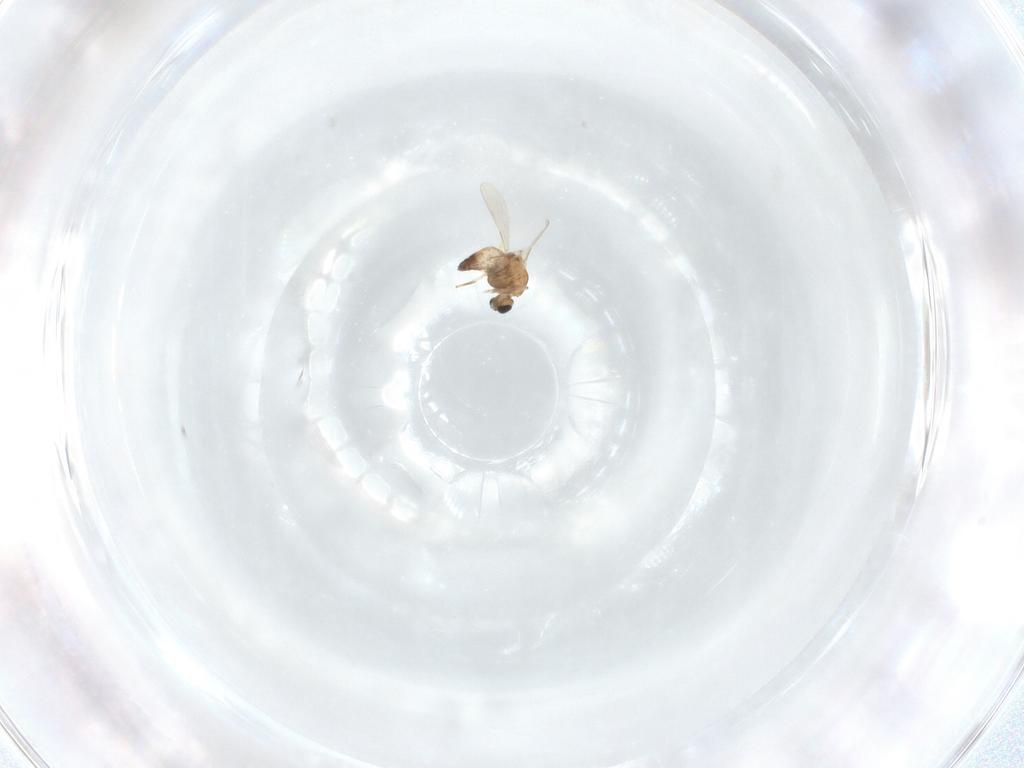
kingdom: Animalia
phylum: Arthropoda
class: Insecta
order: Diptera
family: Chironomidae
